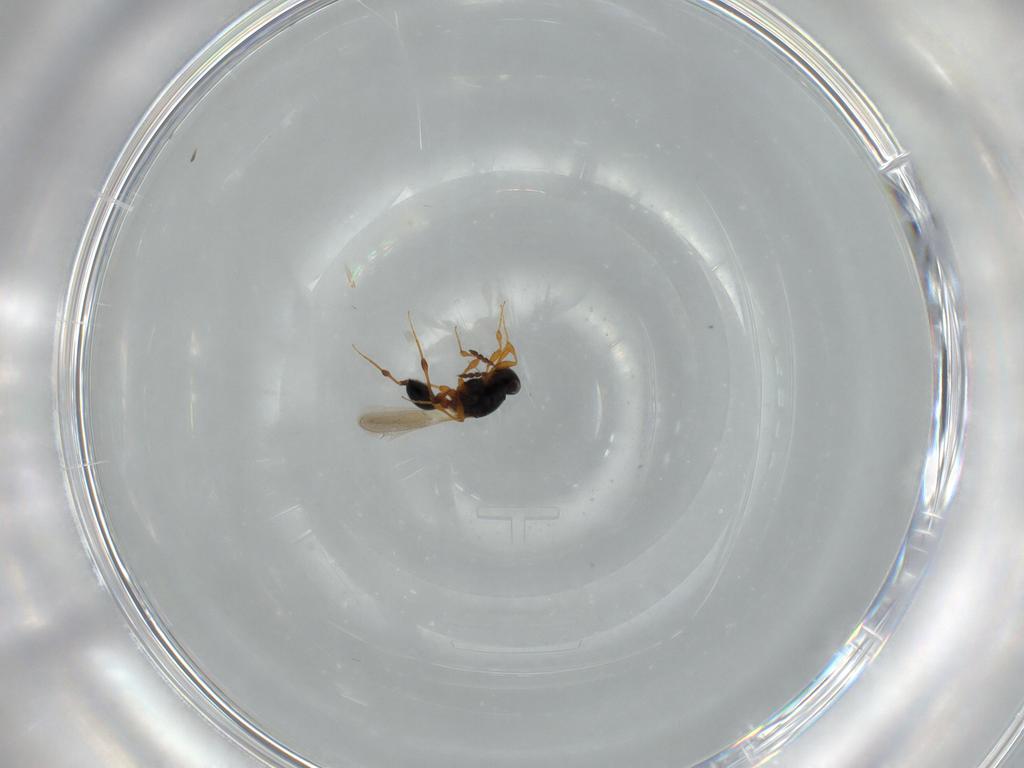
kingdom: Animalia
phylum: Arthropoda
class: Insecta
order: Hymenoptera
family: Platygastridae
